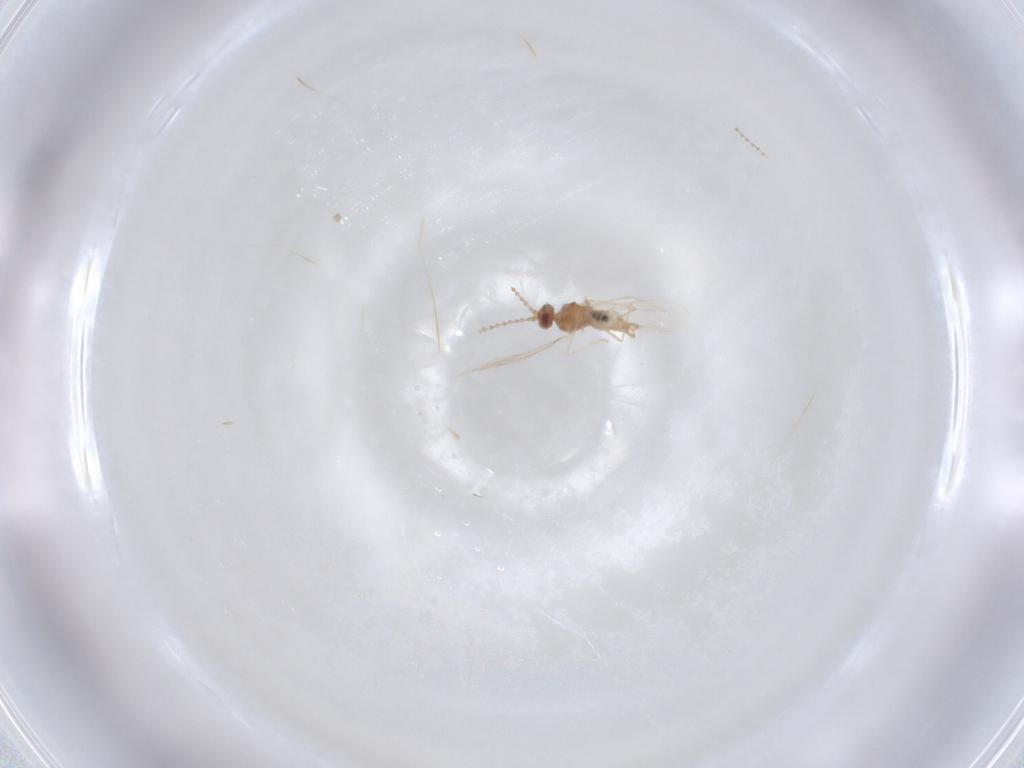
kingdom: Animalia
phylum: Arthropoda
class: Insecta
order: Diptera
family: Cecidomyiidae
